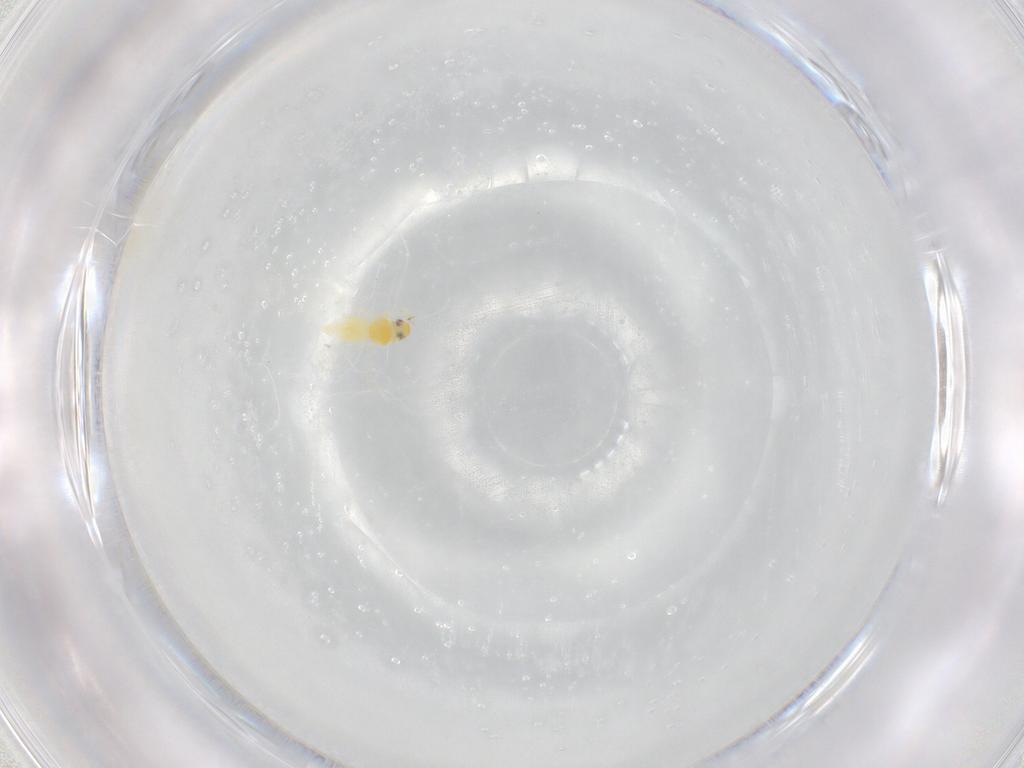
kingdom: Animalia
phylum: Arthropoda
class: Insecta
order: Hemiptera
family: Aleyrodidae
